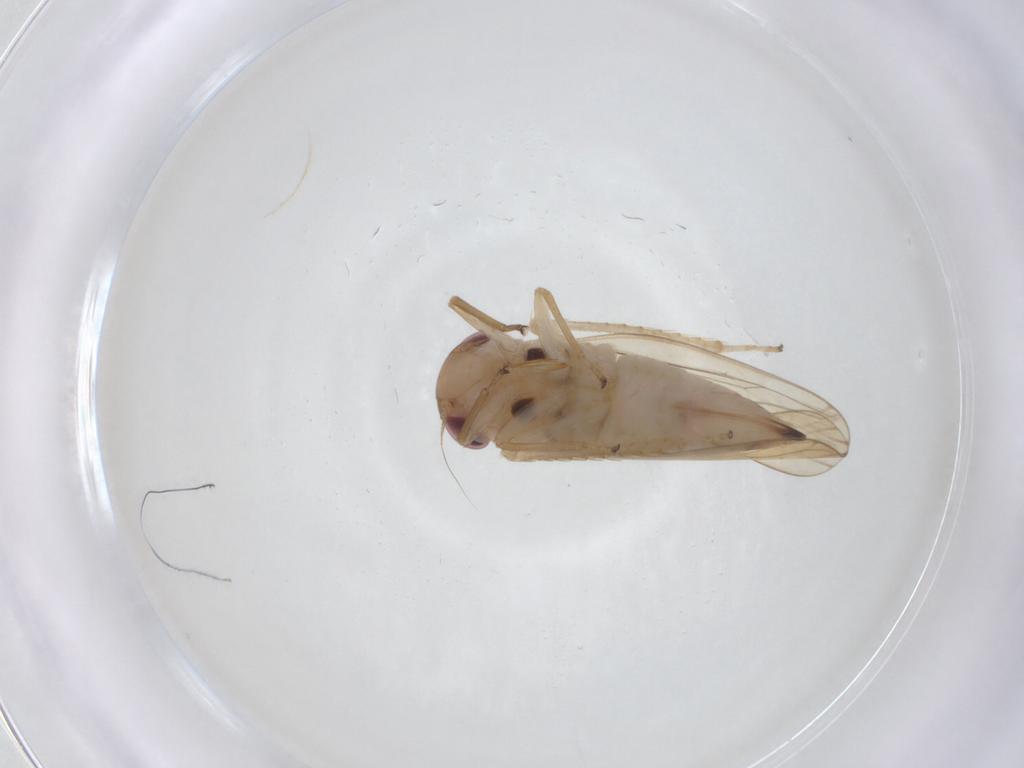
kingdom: Animalia
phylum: Arthropoda
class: Insecta
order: Hemiptera
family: Cicadellidae
